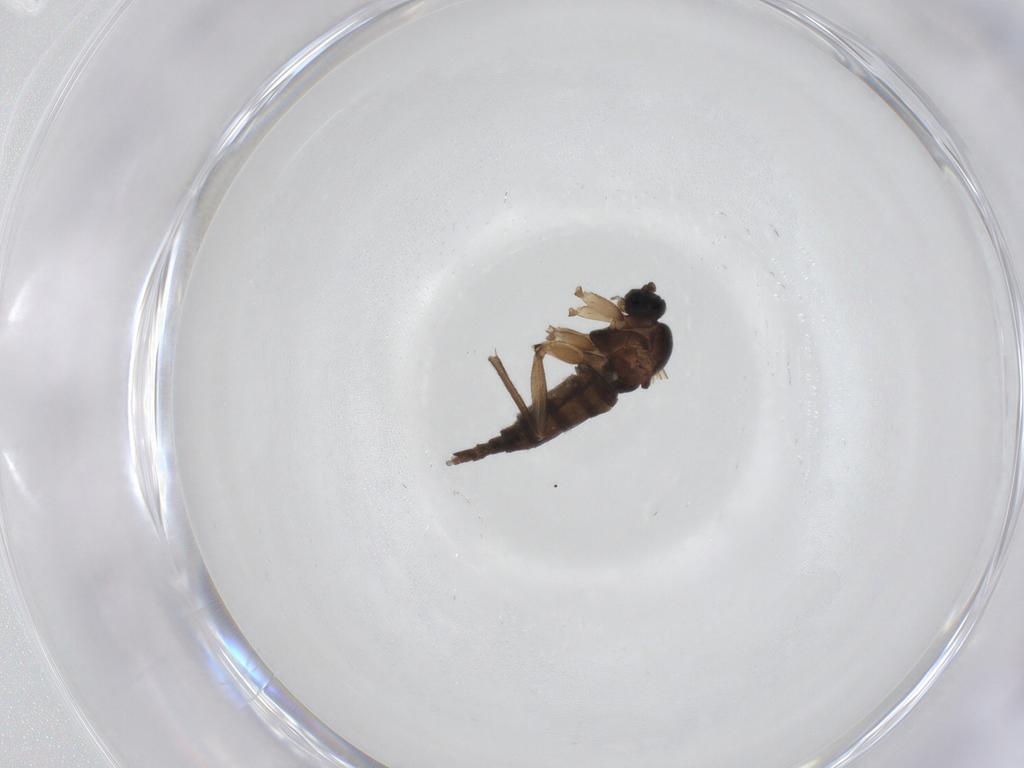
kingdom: Animalia
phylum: Arthropoda
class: Insecta
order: Diptera
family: Sciaridae
